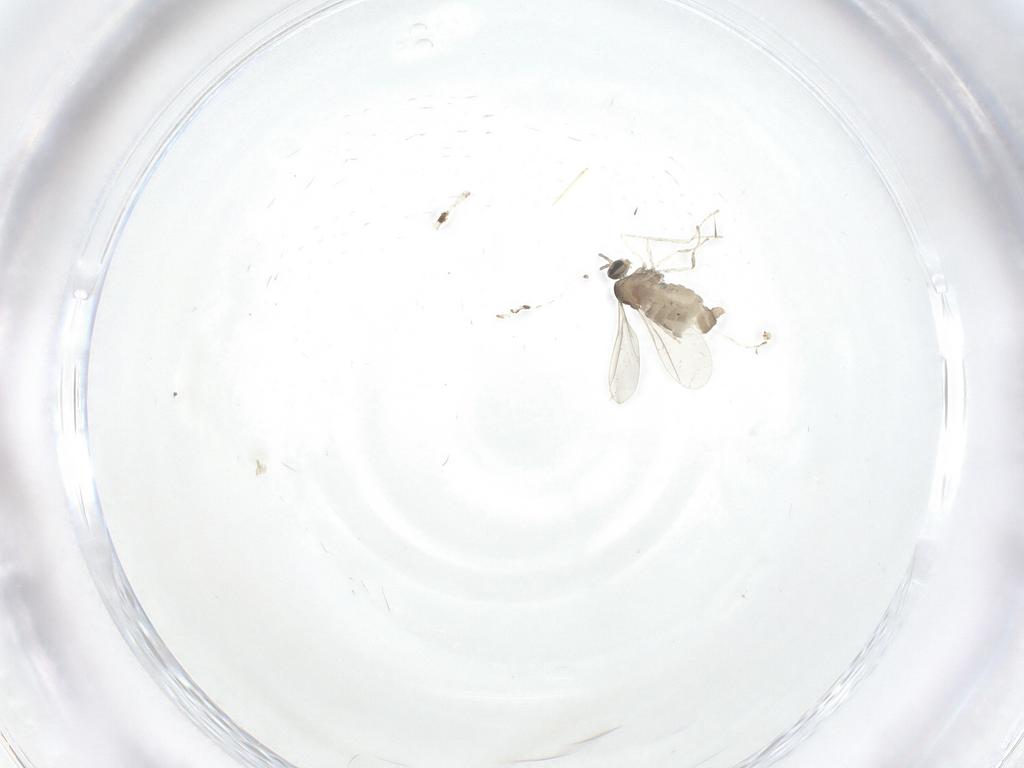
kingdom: Animalia
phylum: Arthropoda
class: Insecta
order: Diptera
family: Cecidomyiidae
